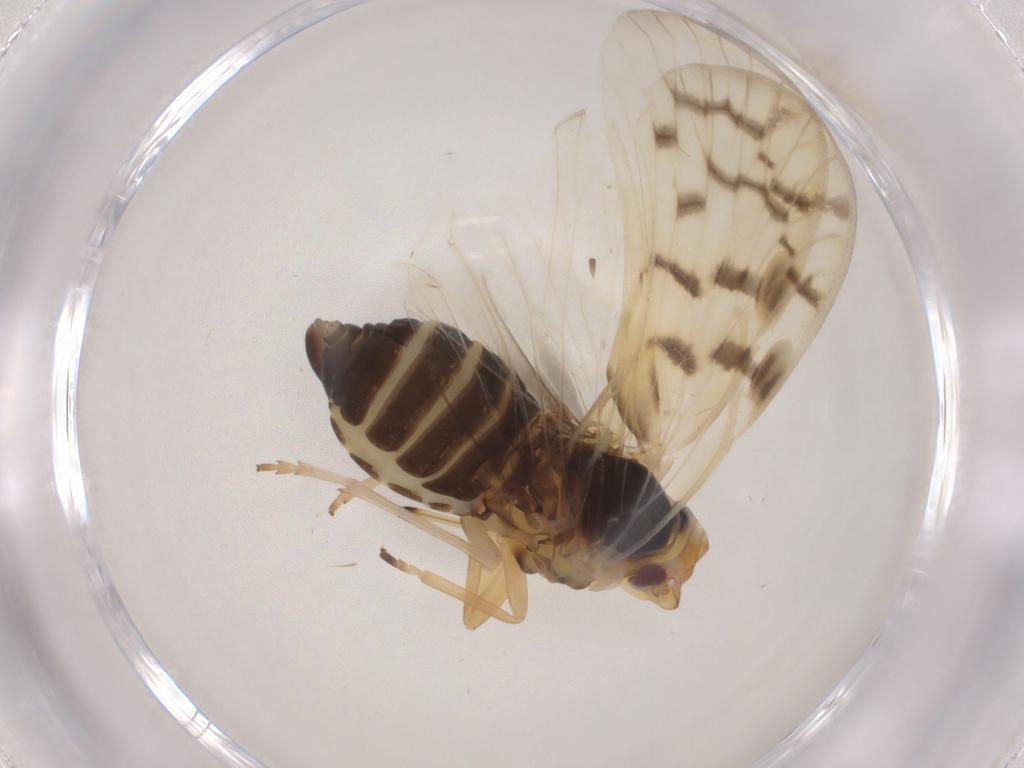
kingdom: Animalia
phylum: Arthropoda
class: Insecta
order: Hemiptera
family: Cixiidae
